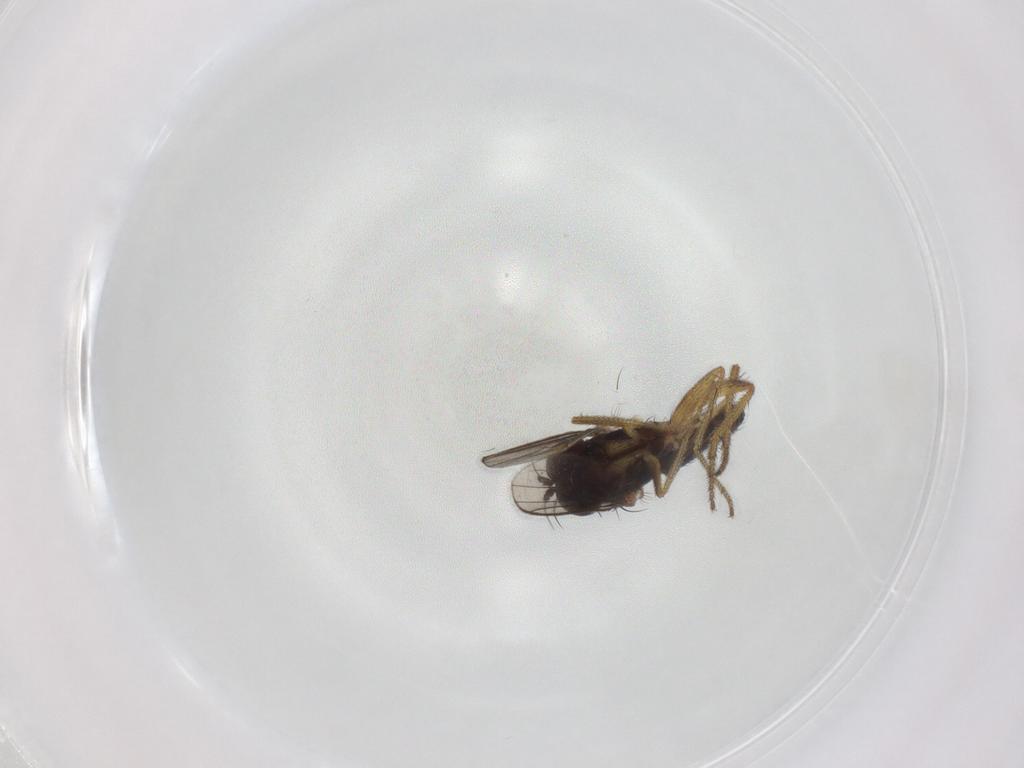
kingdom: Animalia
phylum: Arthropoda
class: Insecta
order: Diptera
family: Dolichopodidae
